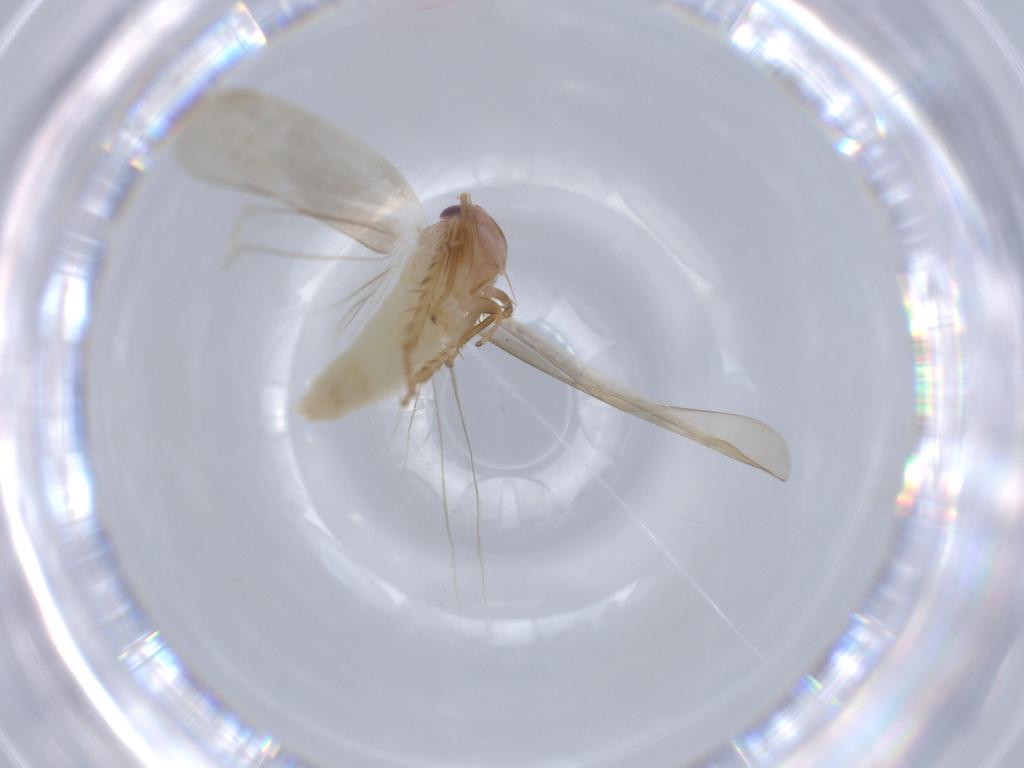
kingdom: Animalia
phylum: Arthropoda
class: Insecta
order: Hemiptera
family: Cicadellidae
